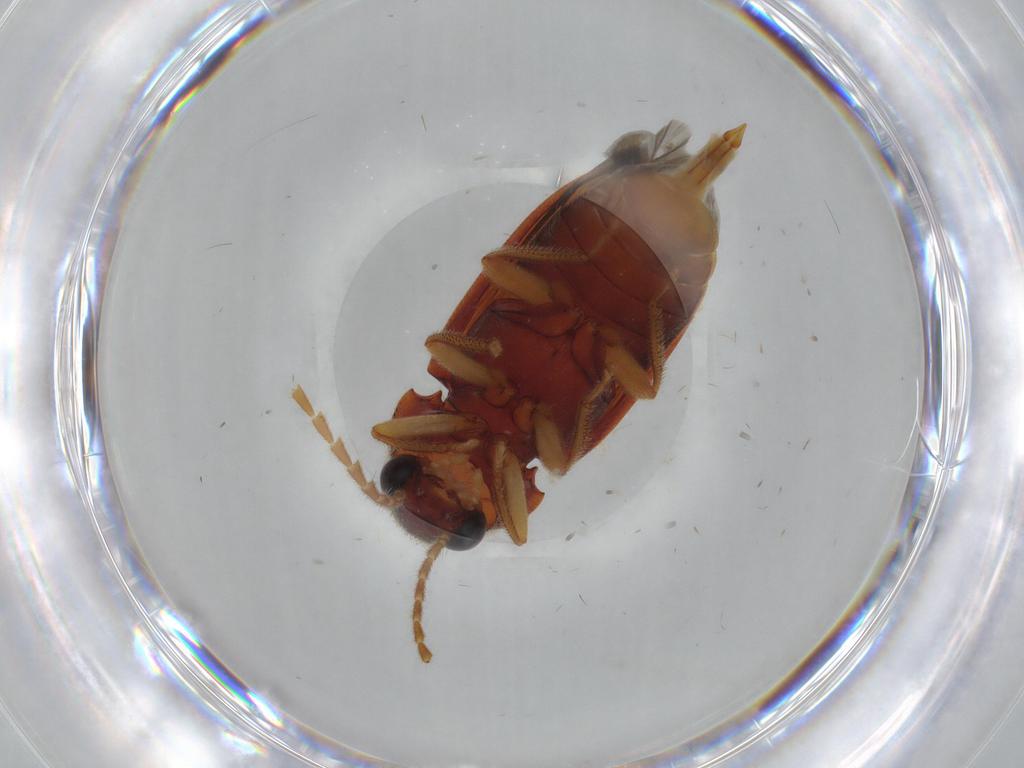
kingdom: Animalia
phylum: Arthropoda
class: Insecta
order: Coleoptera
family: Ptilodactylidae
